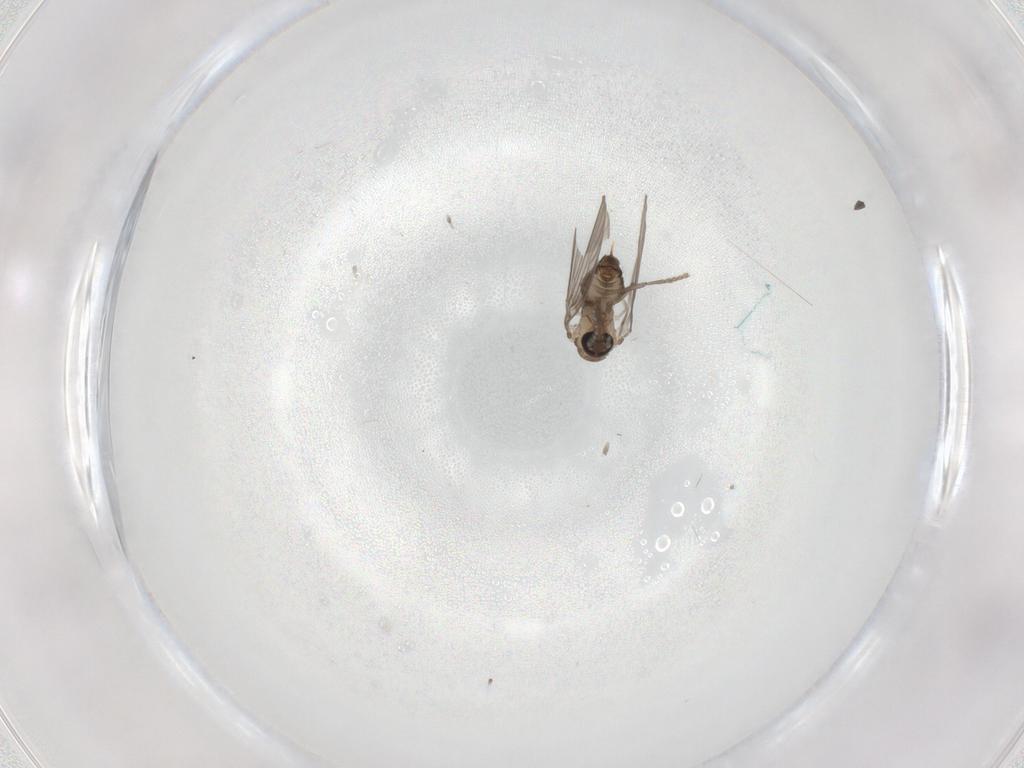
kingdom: Animalia
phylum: Arthropoda
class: Insecta
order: Diptera
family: Psychodidae
